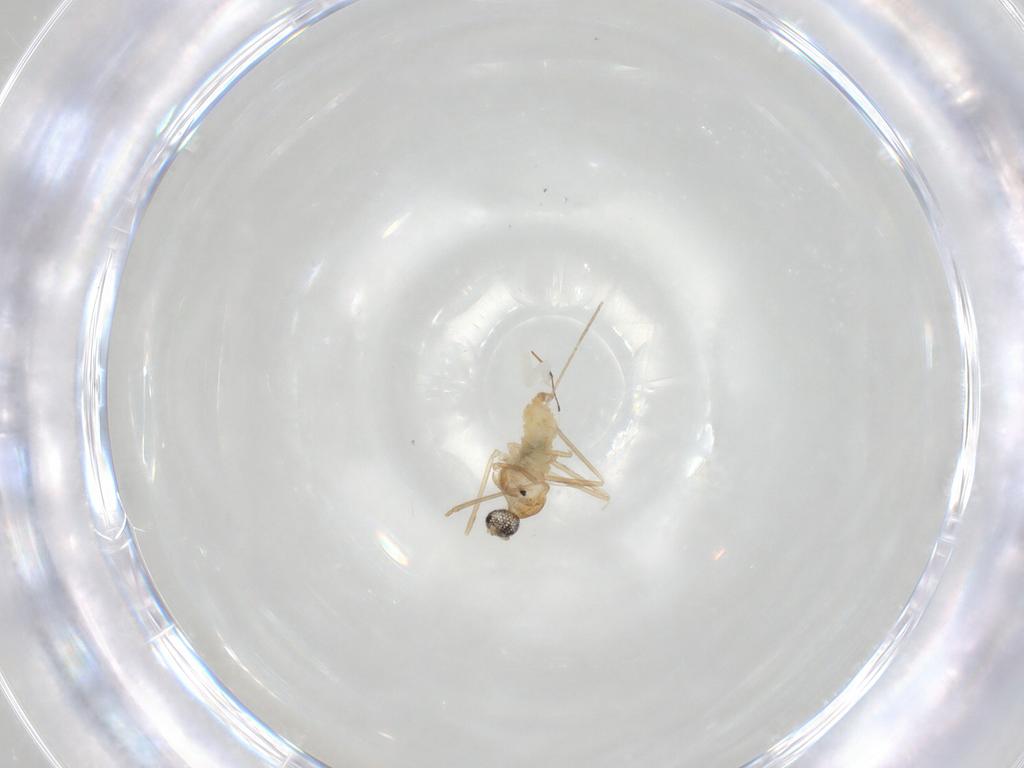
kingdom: Animalia
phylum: Arthropoda
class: Insecta
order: Diptera
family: Cecidomyiidae
